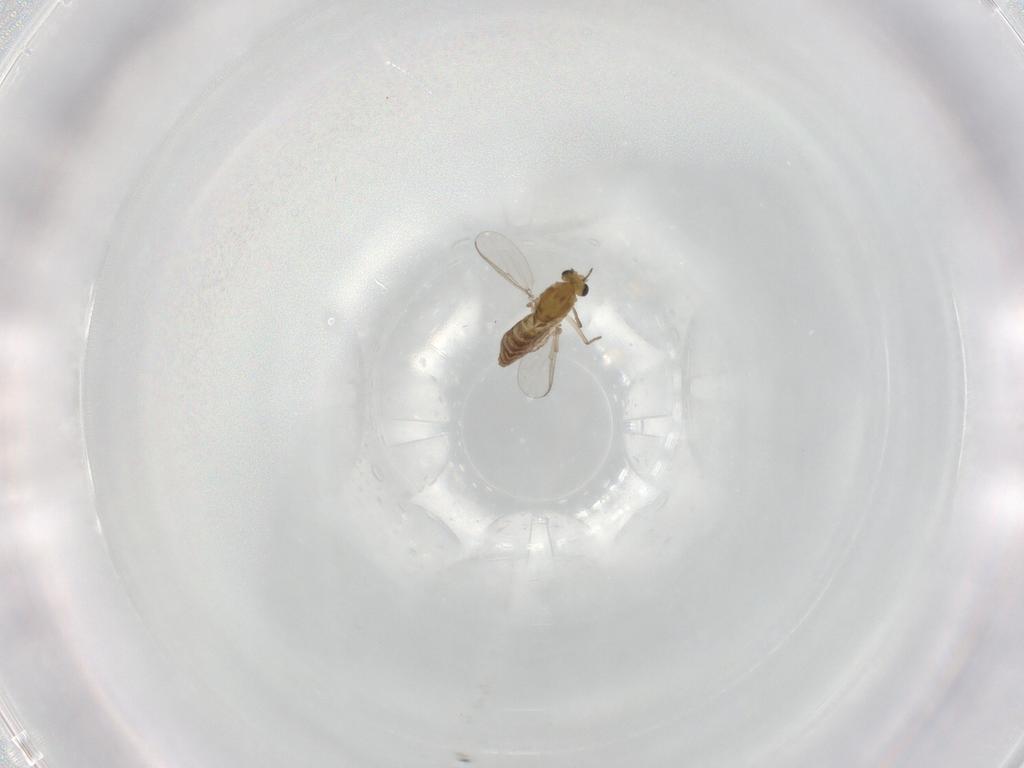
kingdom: Animalia
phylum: Arthropoda
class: Insecta
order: Diptera
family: Chironomidae
